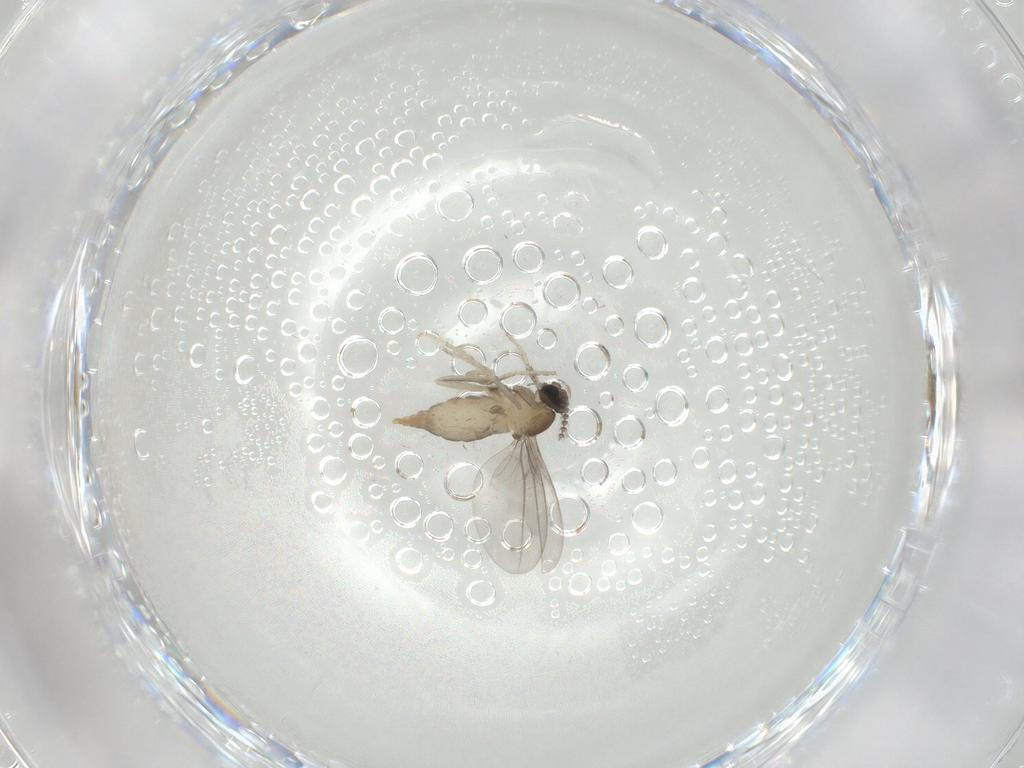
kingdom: Animalia
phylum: Arthropoda
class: Insecta
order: Diptera
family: Cecidomyiidae
